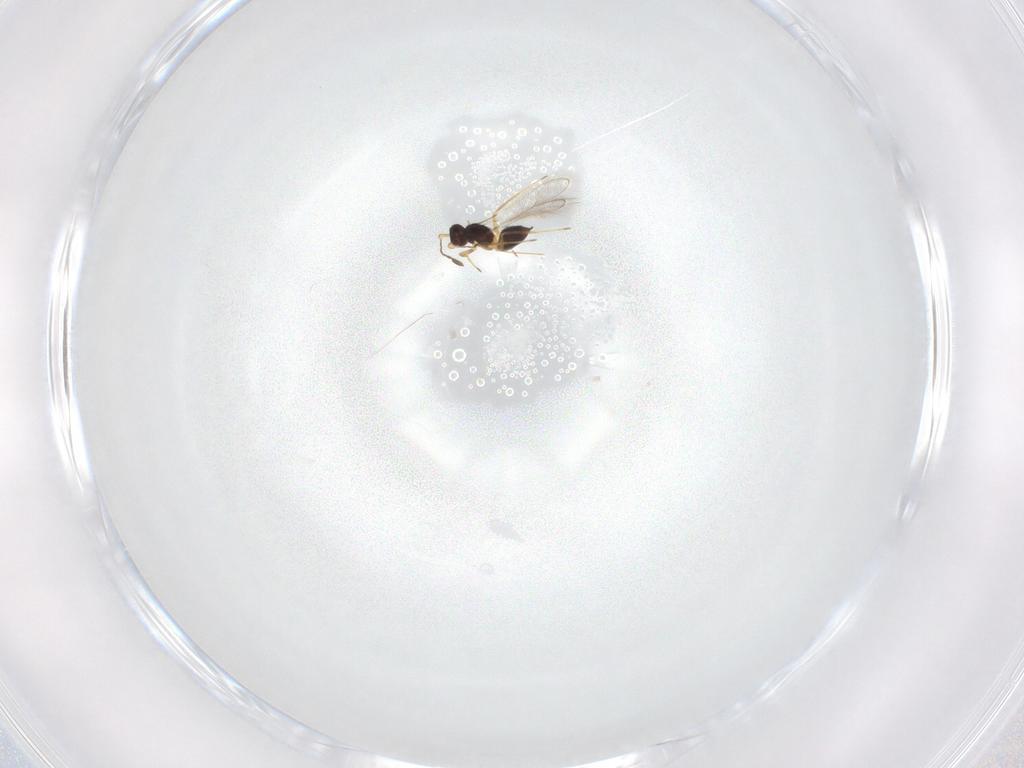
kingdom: Animalia
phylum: Arthropoda
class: Insecta
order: Hymenoptera
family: Mymaridae
